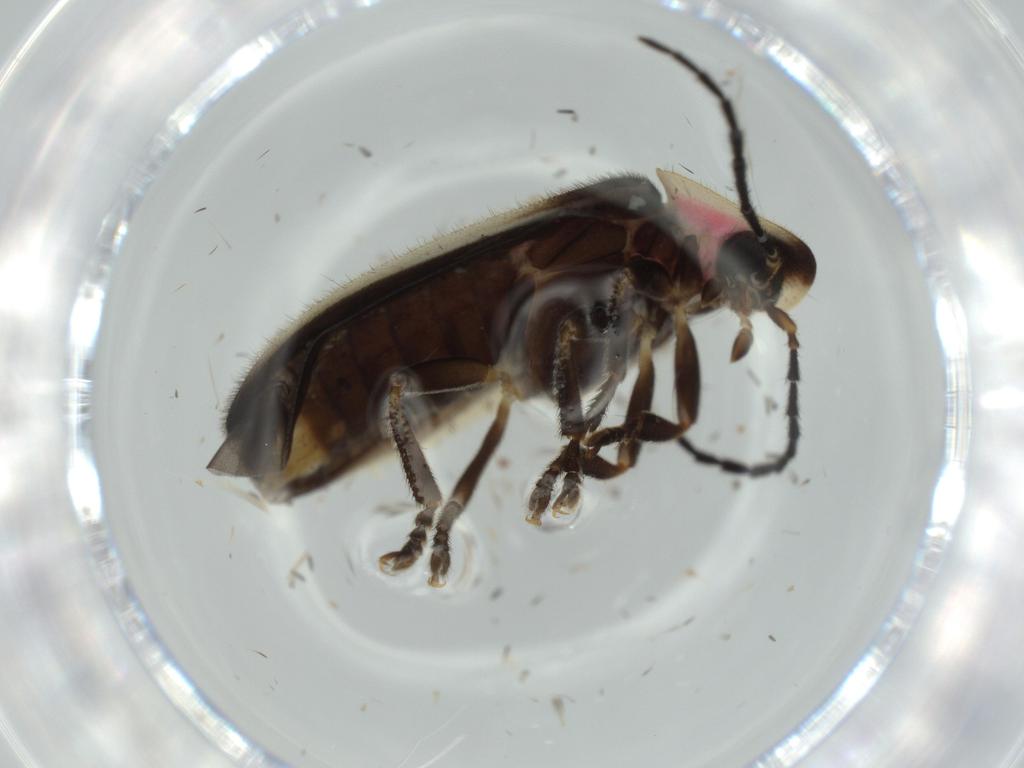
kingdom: Animalia
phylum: Arthropoda
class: Insecta
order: Coleoptera
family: Lampyridae
